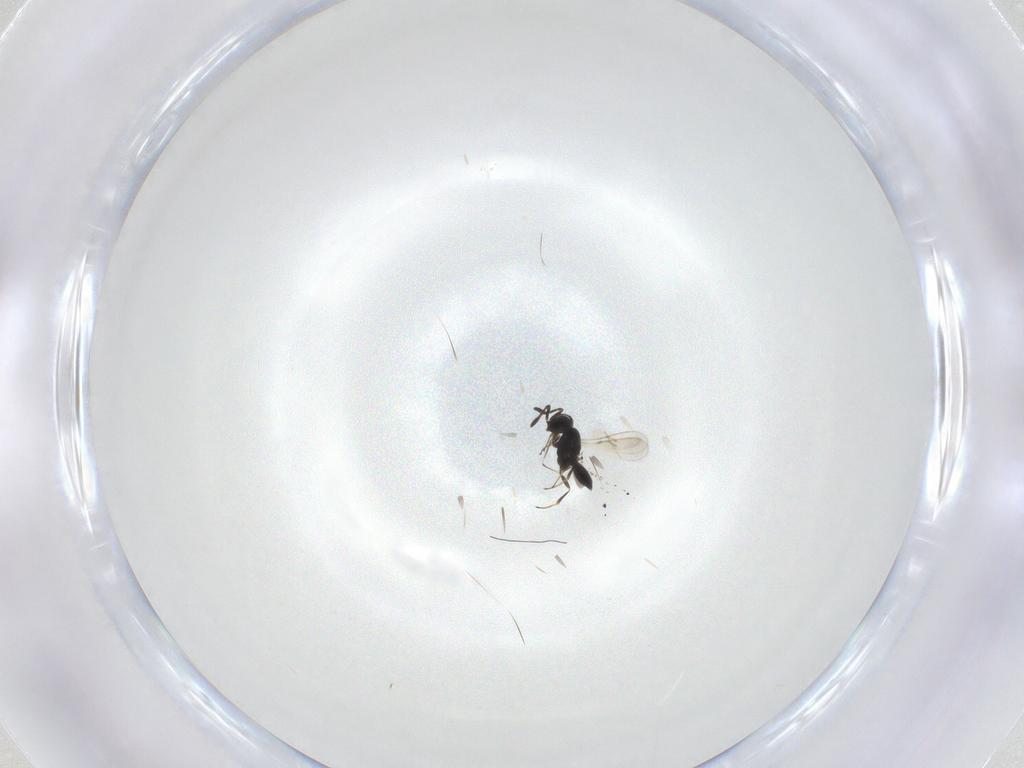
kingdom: Animalia
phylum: Arthropoda
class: Insecta
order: Hymenoptera
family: Scelionidae
